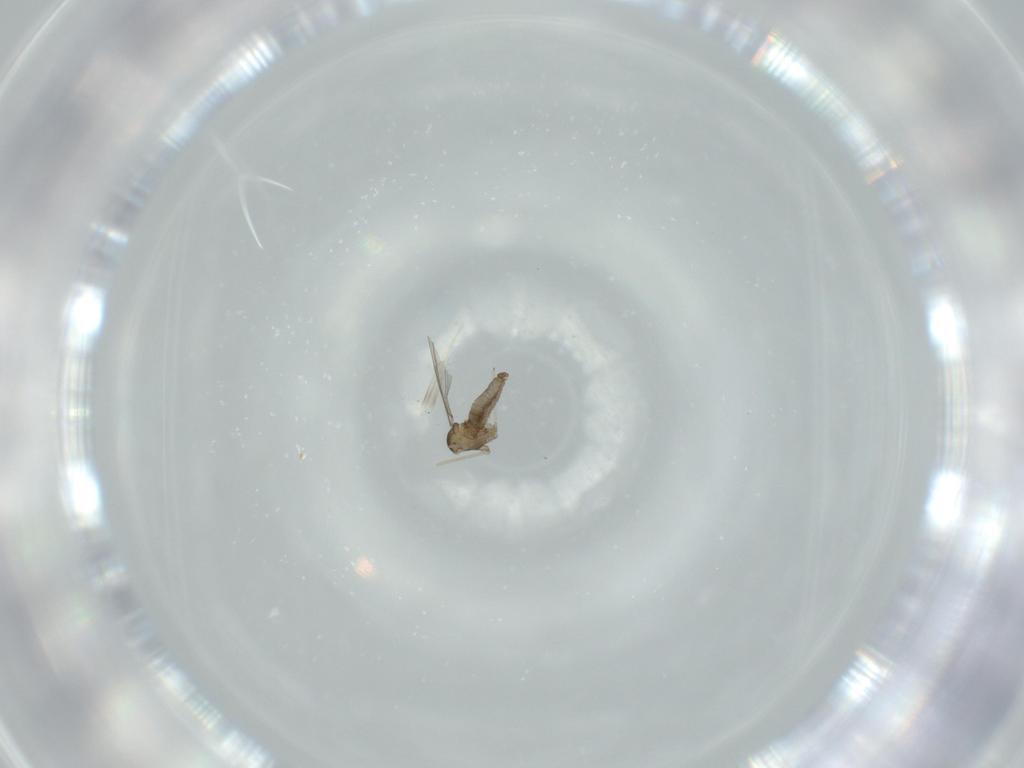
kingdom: Animalia
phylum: Arthropoda
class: Insecta
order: Diptera
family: Cecidomyiidae
